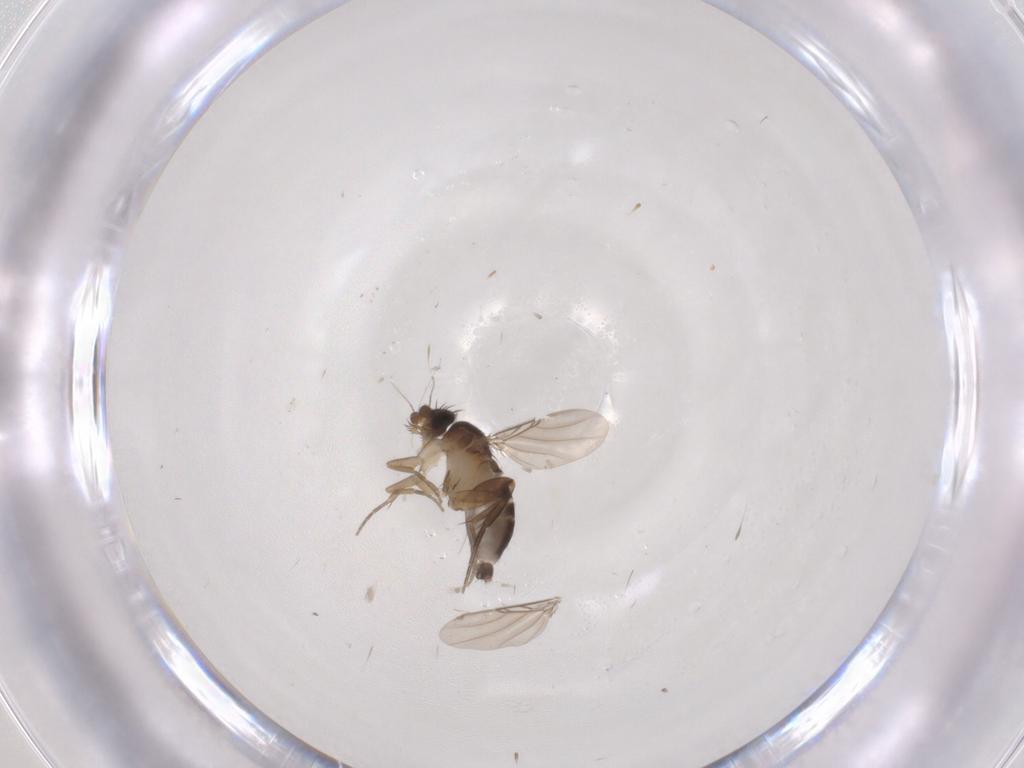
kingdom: Animalia
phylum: Arthropoda
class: Insecta
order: Diptera
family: Phoridae
